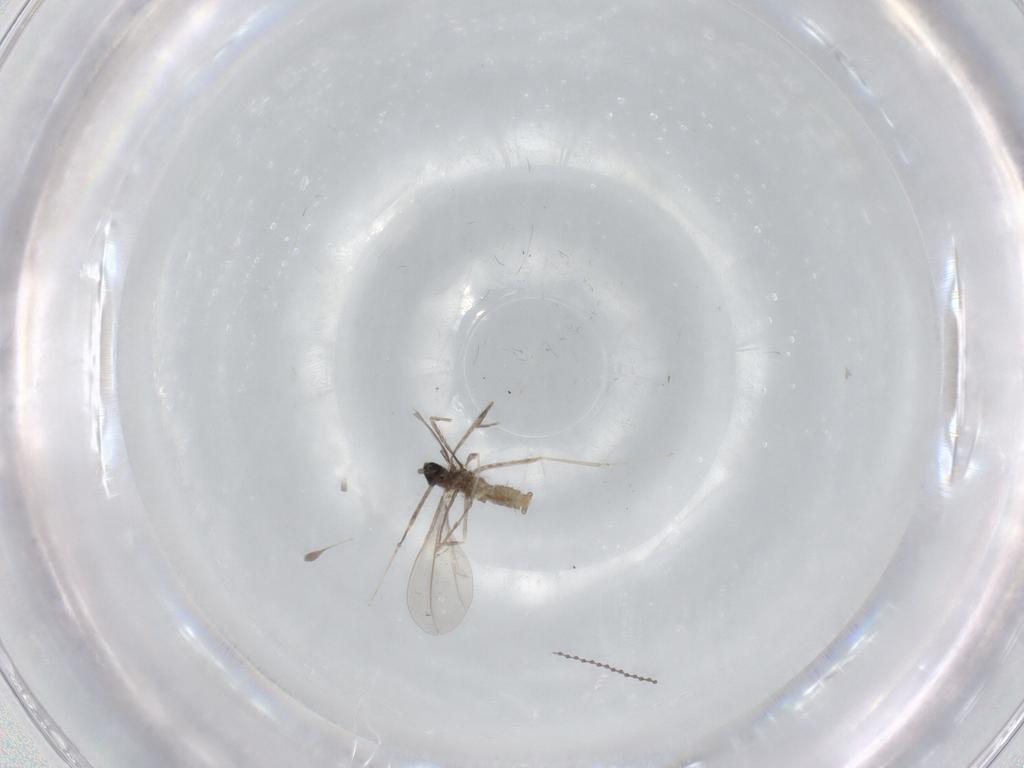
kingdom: Animalia
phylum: Arthropoda
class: Insecta
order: Diptera
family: Cecidomyiidae
